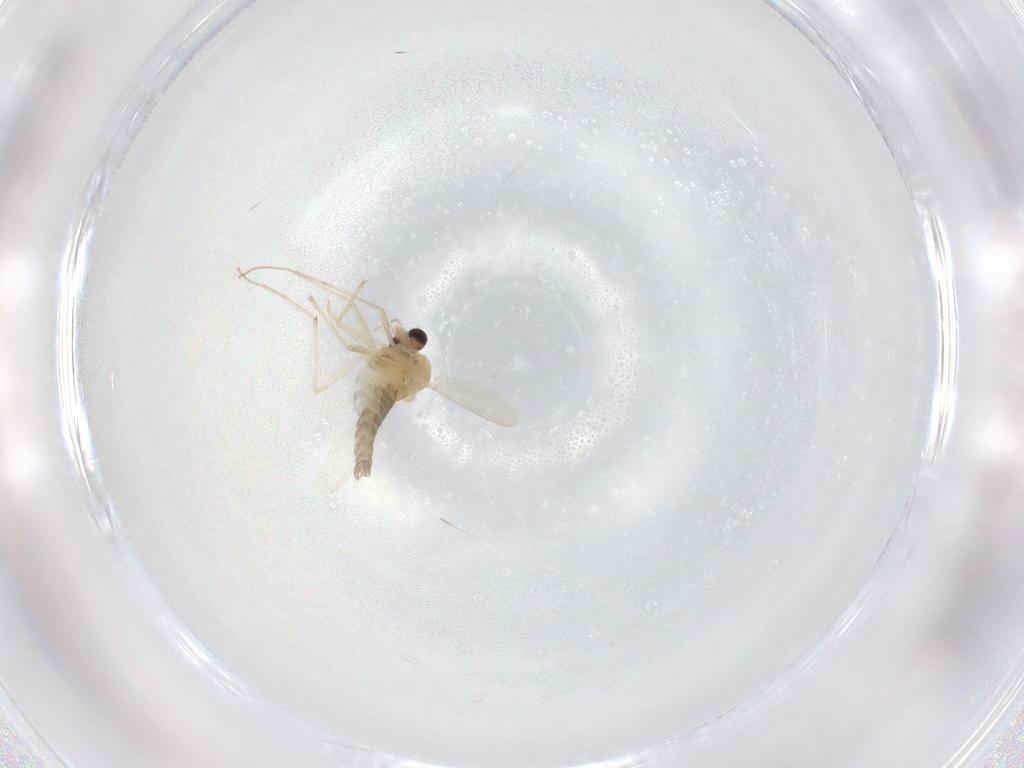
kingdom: Animalia
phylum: Arthropoda
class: Insecta
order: Diptera
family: Chironomidae
